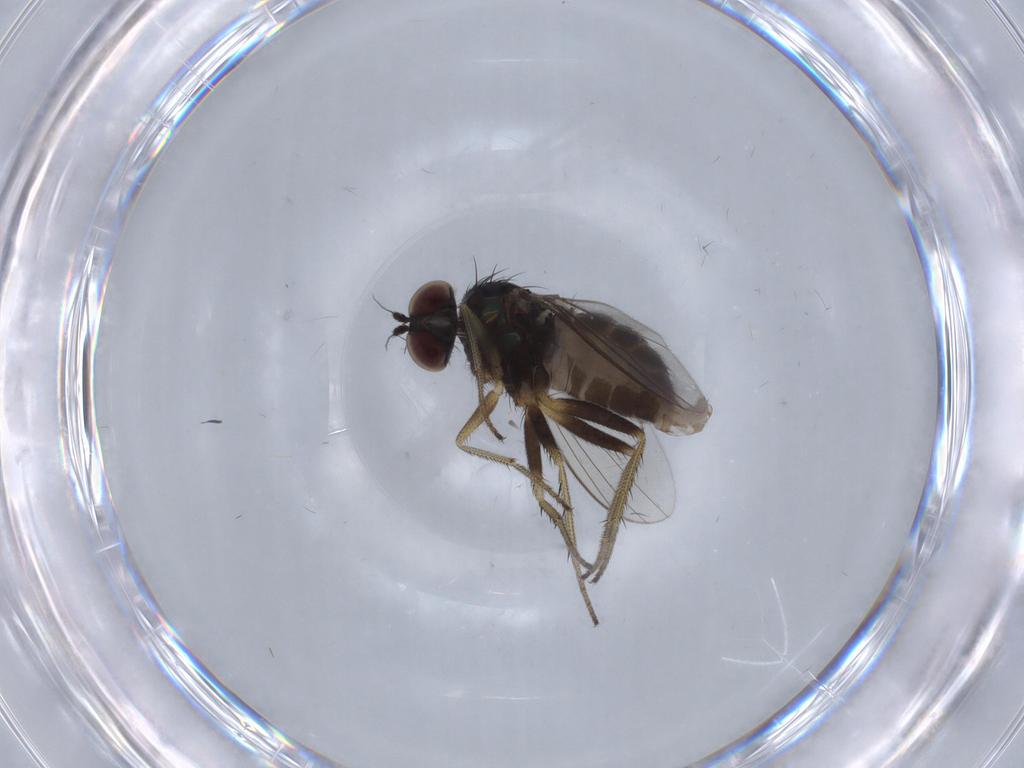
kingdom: Animalia
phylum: Arthropoda
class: Insecta
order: Diptera
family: Dolichopodidae
